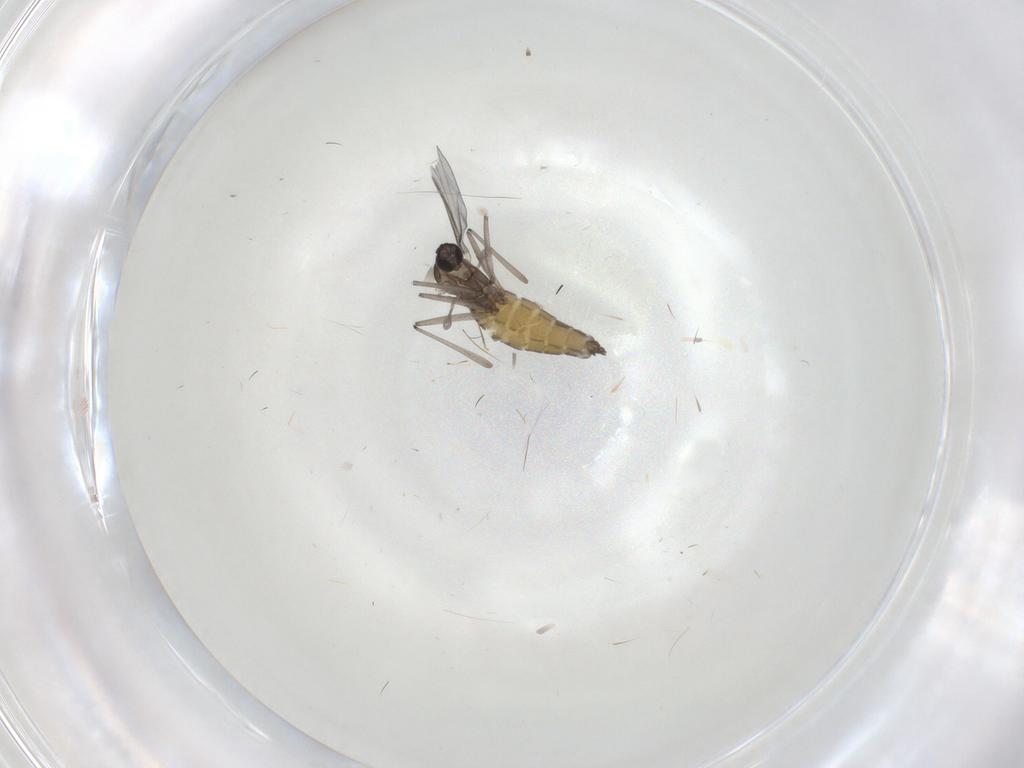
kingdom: Animalia
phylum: Arthropoda
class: Insecta
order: Diptera
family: Cecidomyiidae
